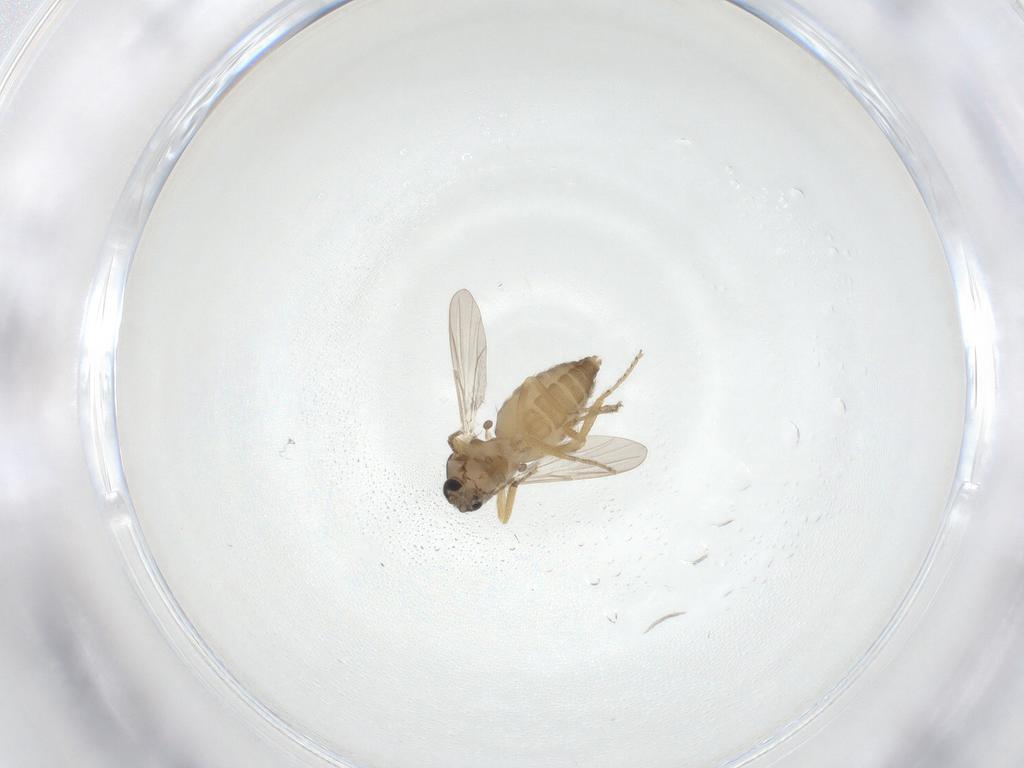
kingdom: Animalia
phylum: Arthropoda
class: Insecta
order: Diptera
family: Ceratopogonidae
